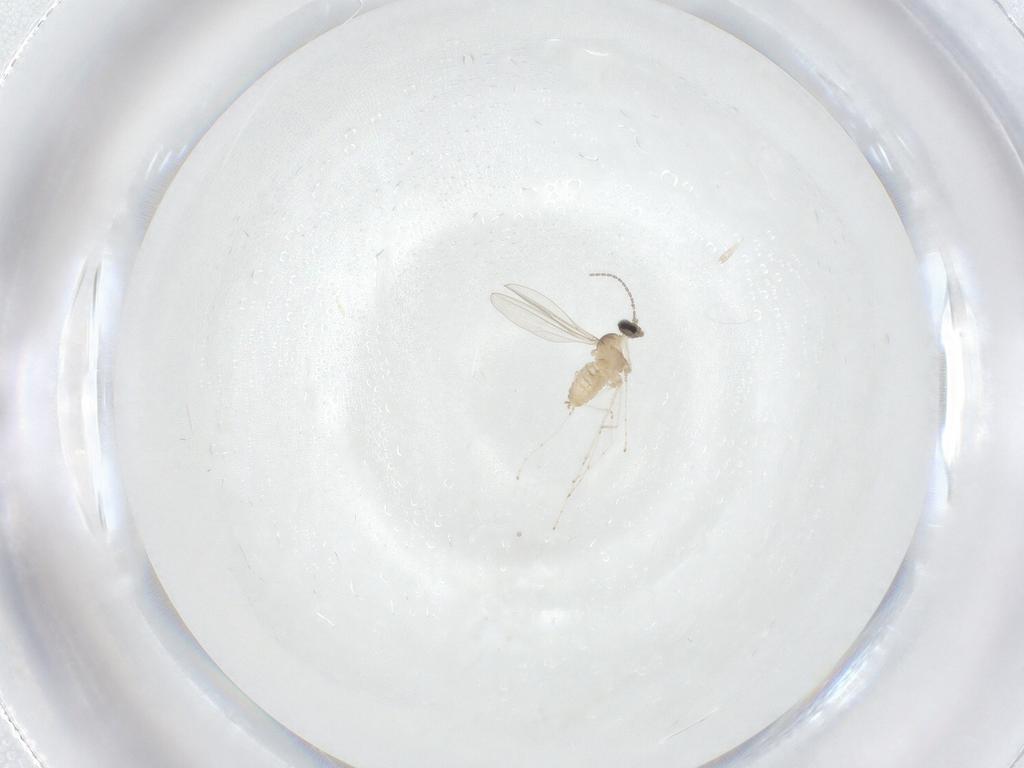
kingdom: Animalia
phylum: Arthropoda
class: Insecta
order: Diptera
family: Cecidomyiidae
